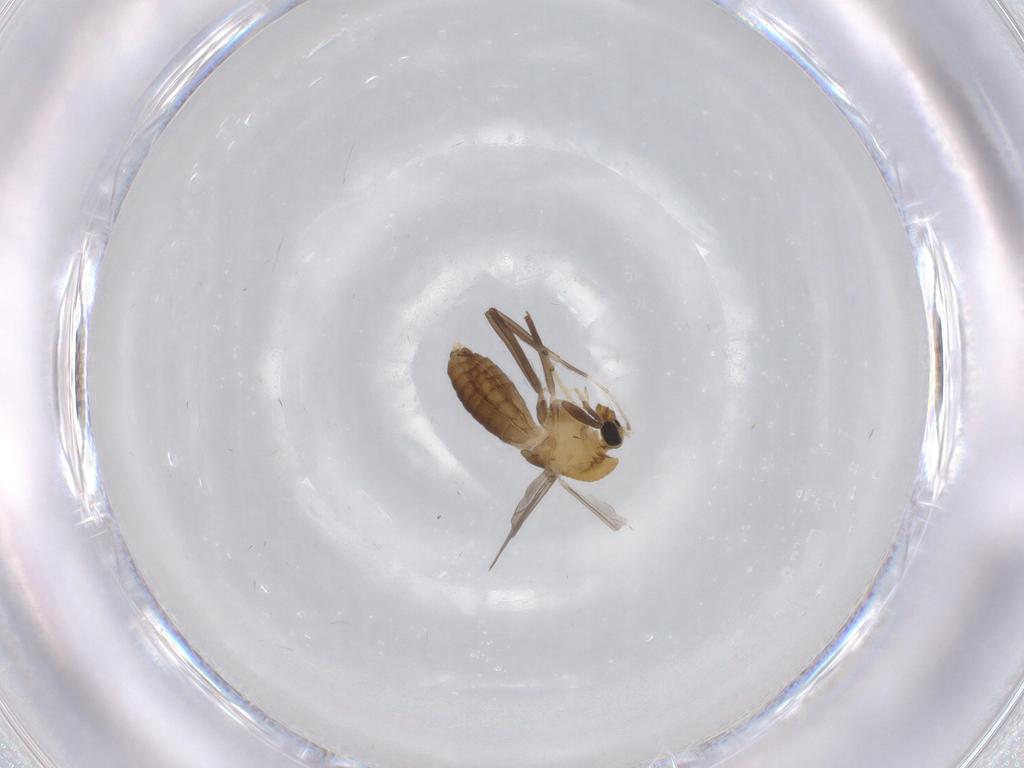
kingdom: Animalia
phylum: Arthropoda
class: Insecta
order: Diptera
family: Chironomidae
